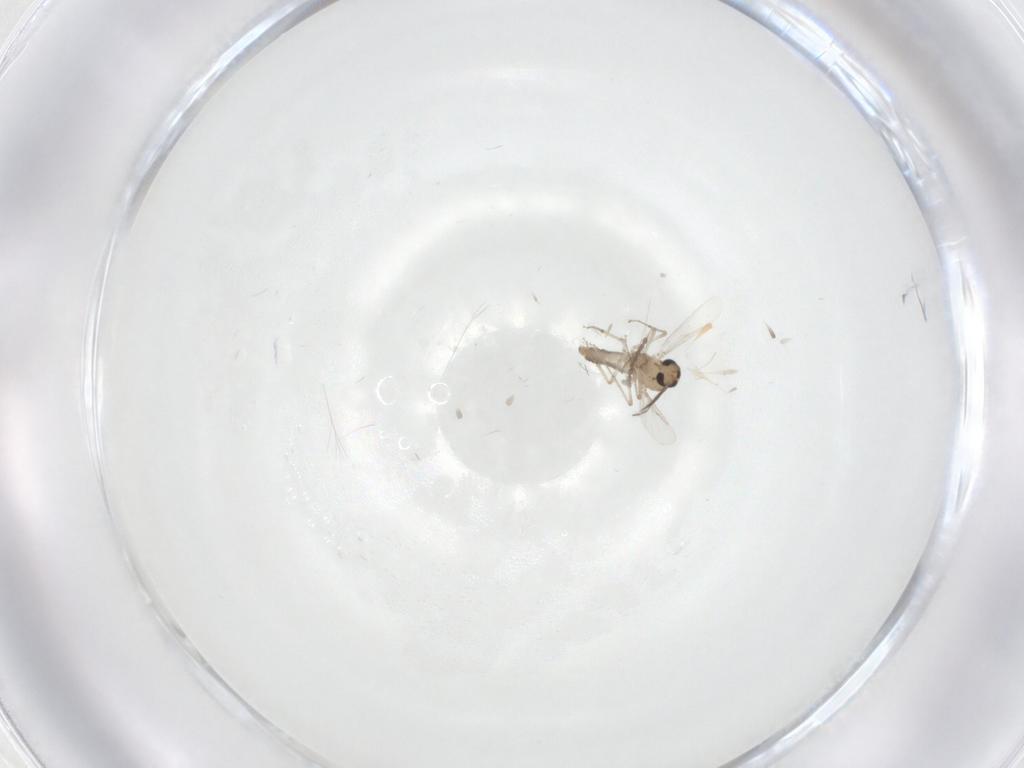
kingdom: Animalia
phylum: Arthropoda
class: Insecta
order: Diptera
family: Ceratopogonidae
